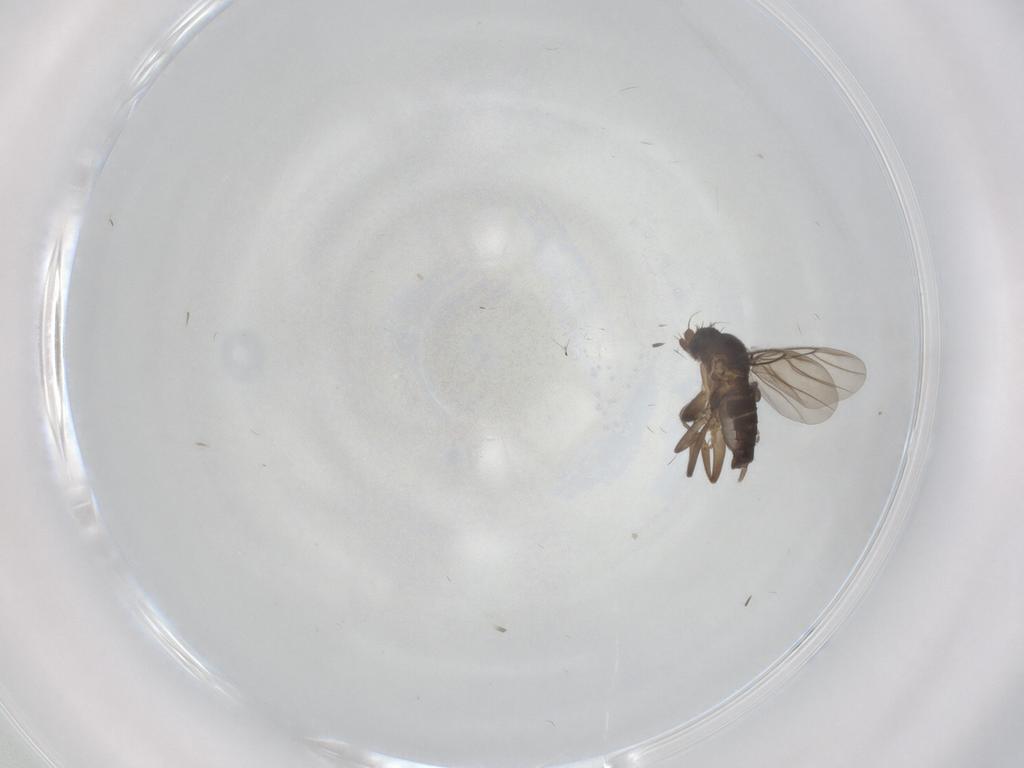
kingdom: Animalia
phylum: Arthropoda
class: Insecta
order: Diptera
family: Phoridae
